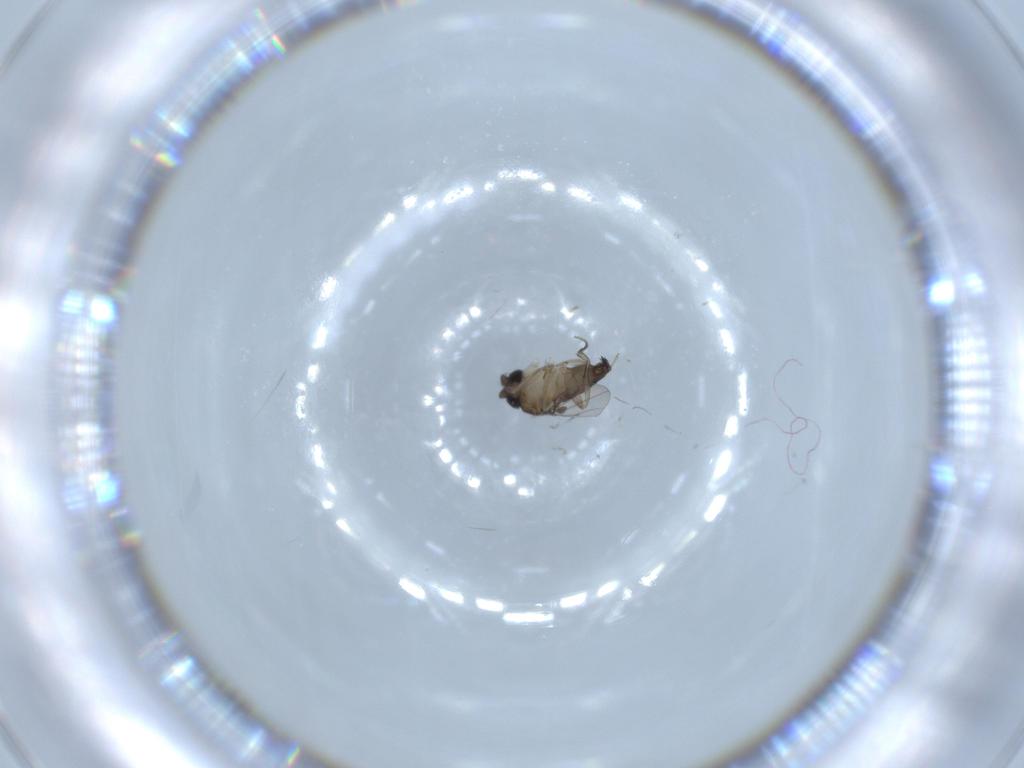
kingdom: Animalia
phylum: Arthropoda
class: Insecta
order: Diptera
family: Phoridae
